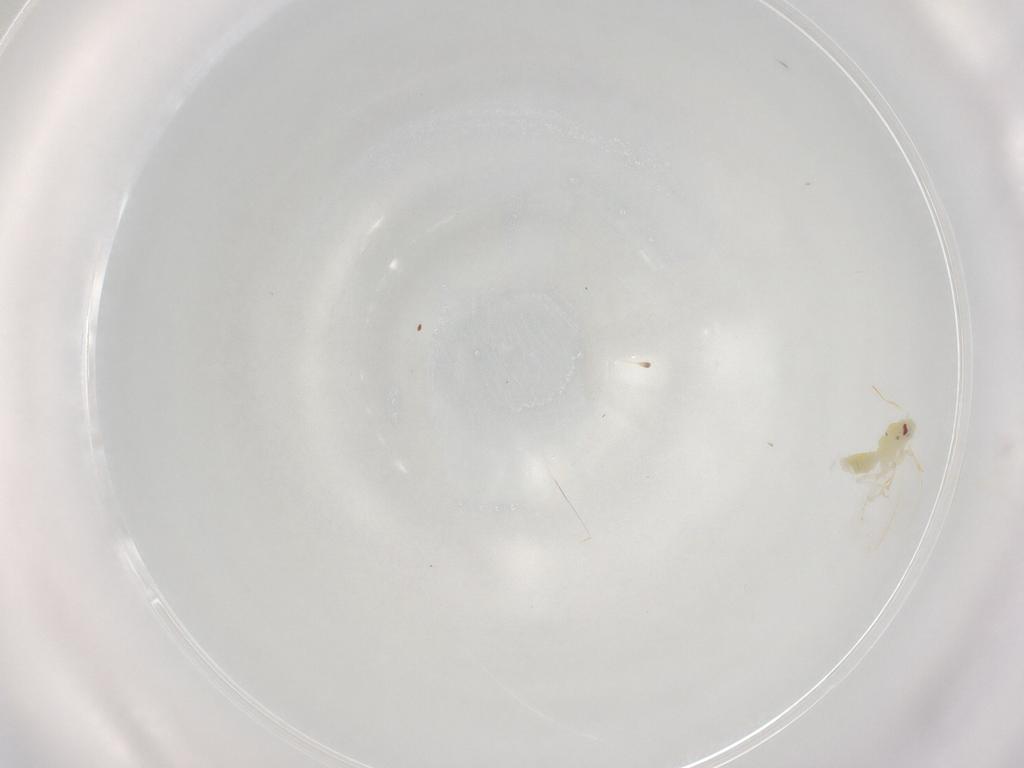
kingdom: Animalia
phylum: Arthropoda
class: Insecta
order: Hemiptera
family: Aleyrodidae
